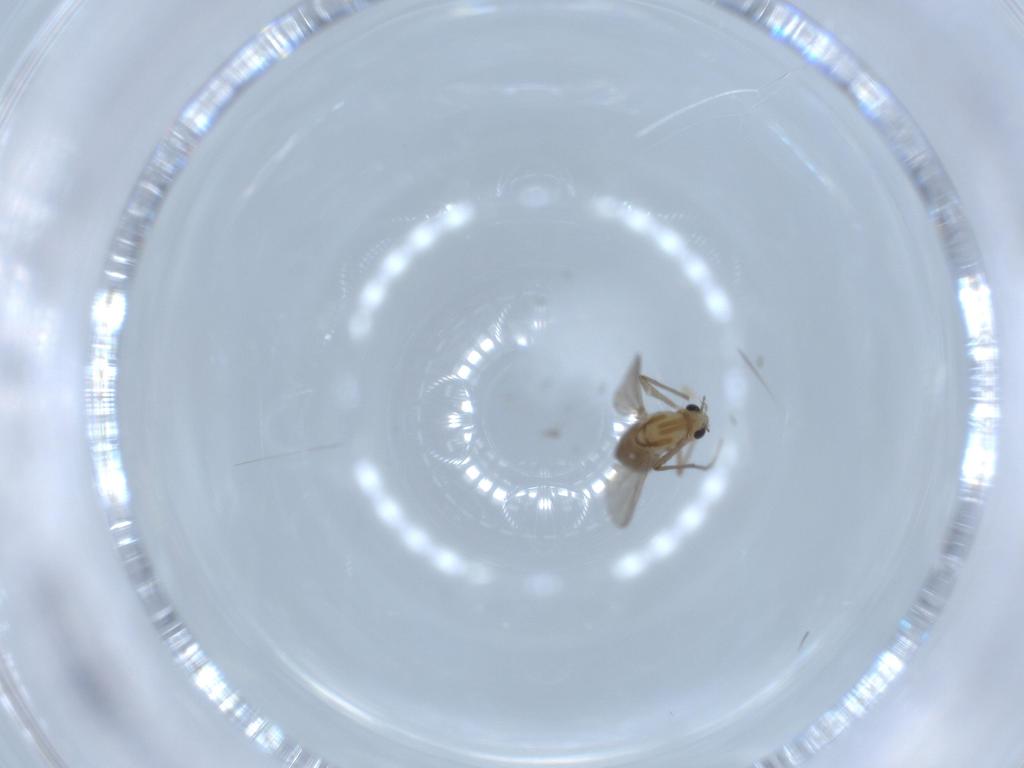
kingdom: Animalia
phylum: Arthropoda
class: Insecta
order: Diptera
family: Chironomidae
